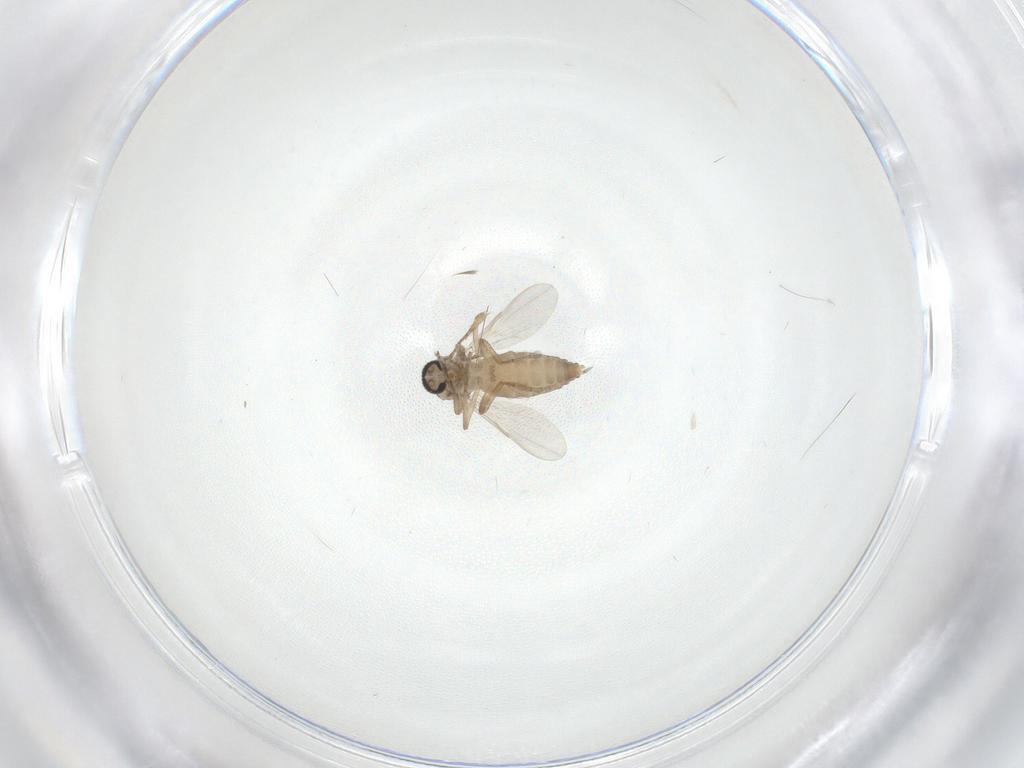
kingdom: Animalia
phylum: Arthropoda
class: Insecta
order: Diptera
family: Ceratopogonidae
